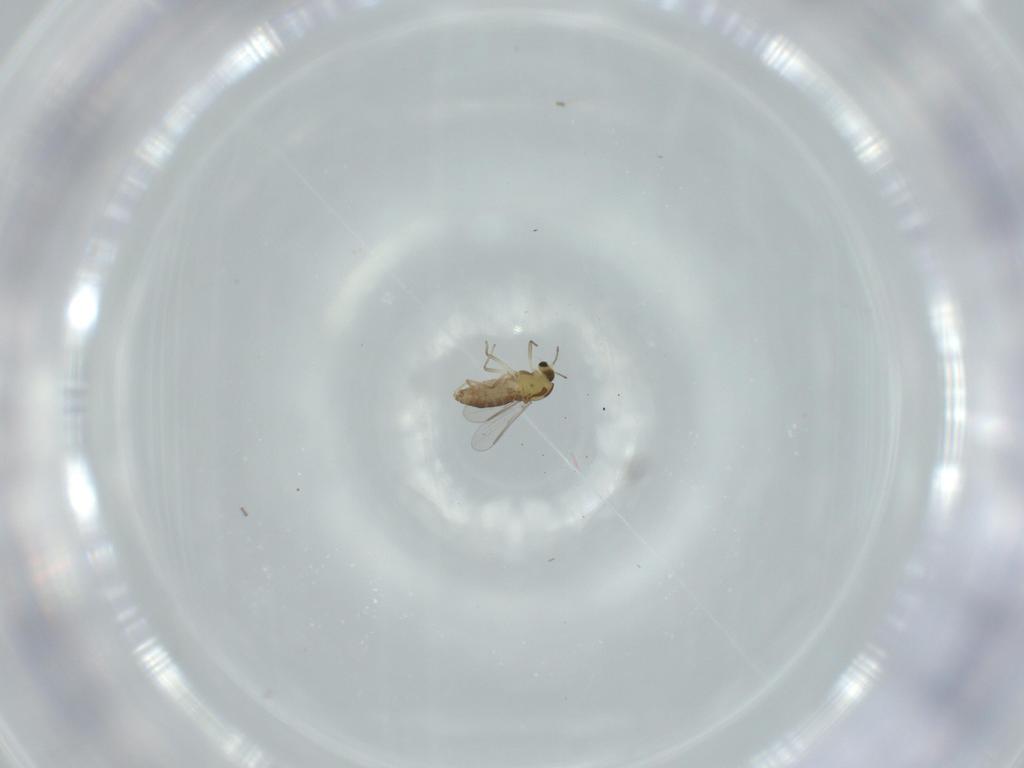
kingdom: Animalia
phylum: Arthropoda
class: Insecta
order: Diptera
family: Chironomidae
